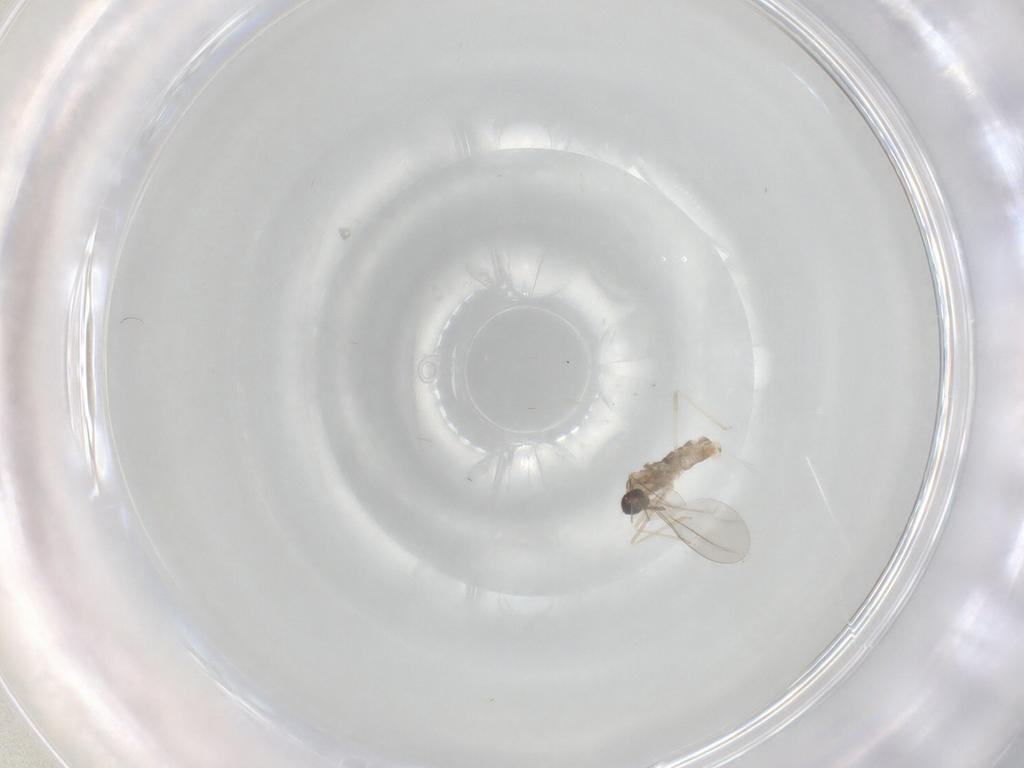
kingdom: Animalia
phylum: Arthropoda
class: Insecta
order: Diptera
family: Cecidomyiidae
